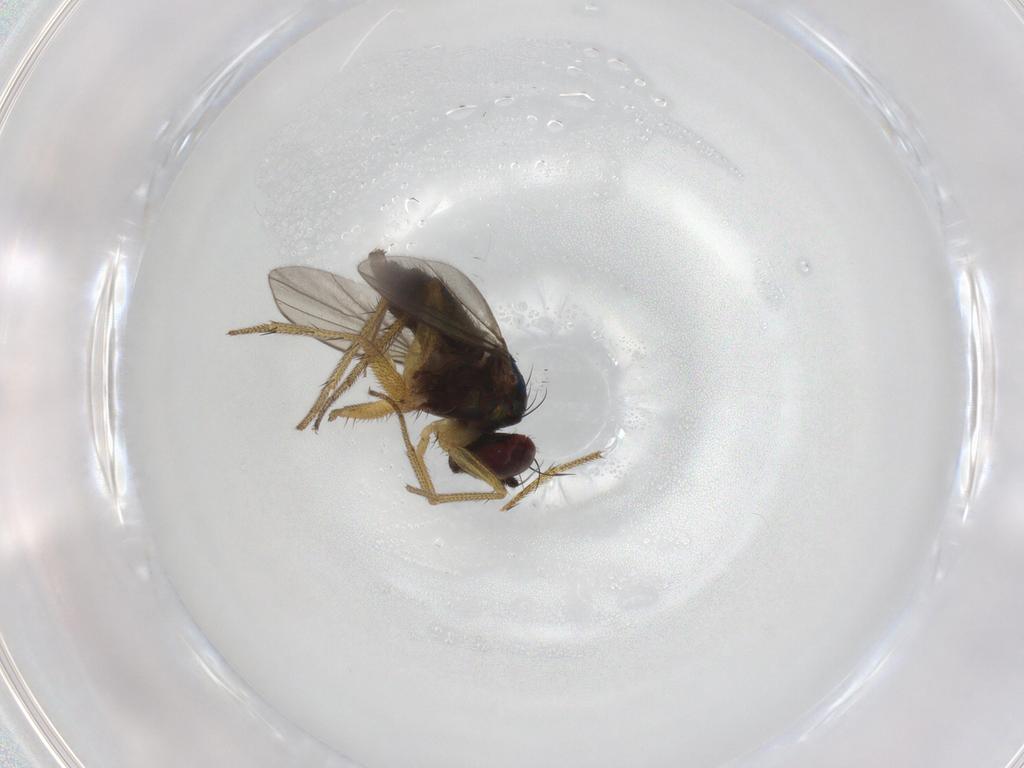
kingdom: Animalia
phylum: Arthropoda
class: Insecta
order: Diptera
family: Dolichopodidae
